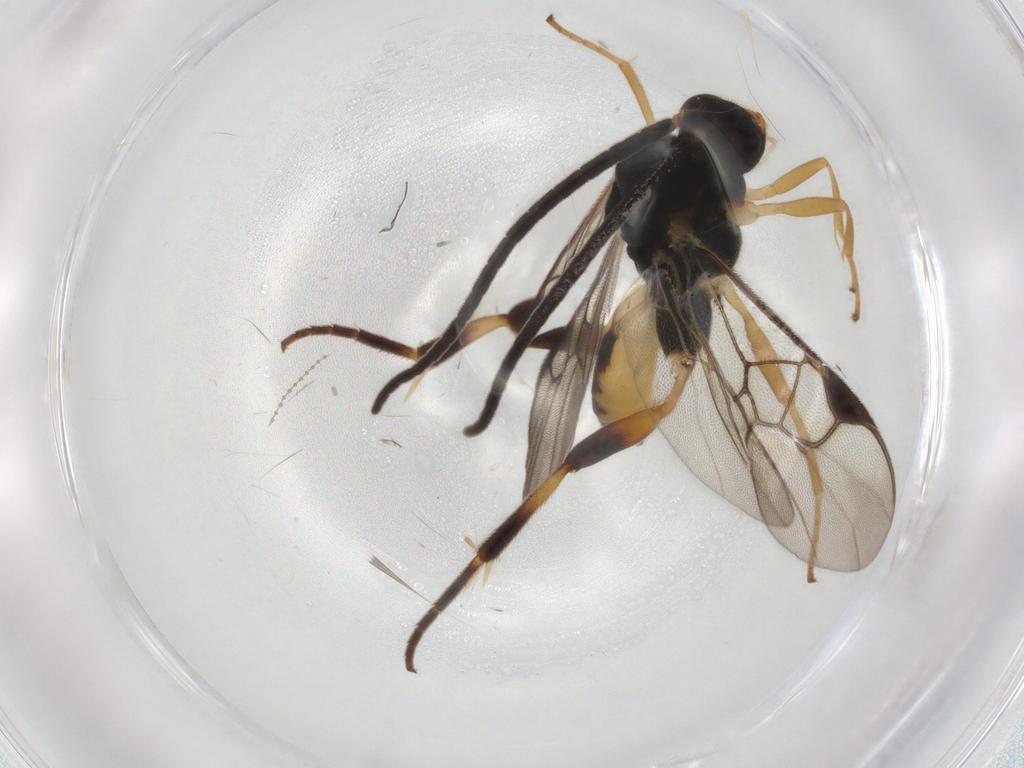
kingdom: Animalia
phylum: Arthropoda
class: Insecta
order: Hymenoptera
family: Braconidae
